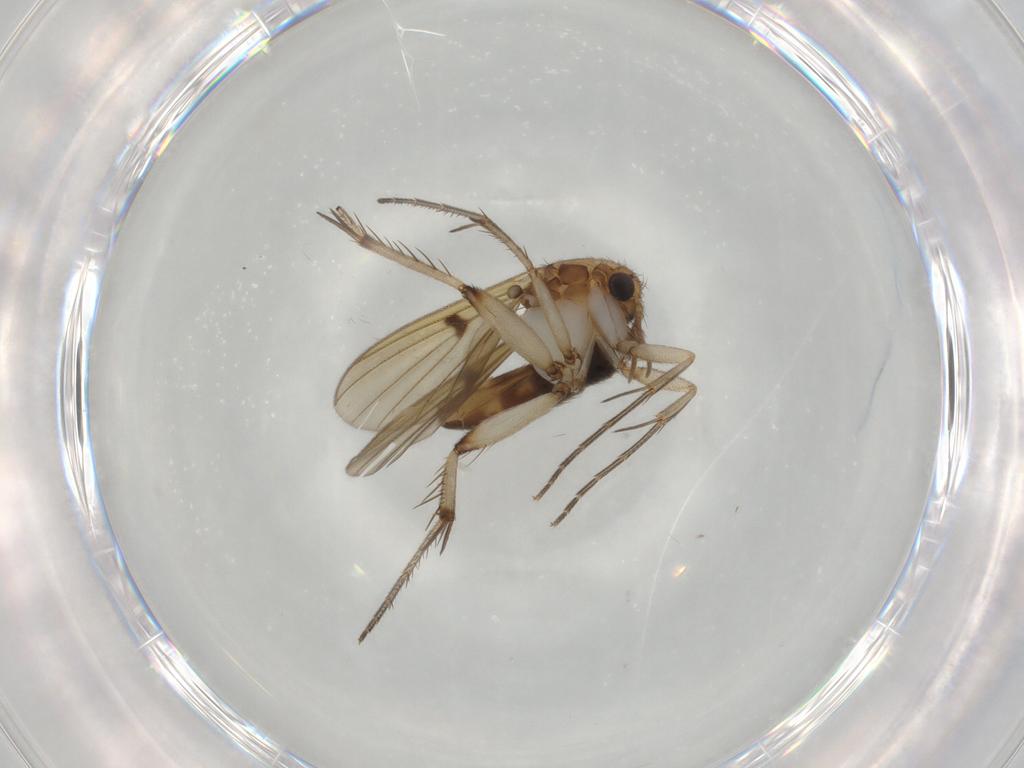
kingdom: Animalia
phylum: Arthropoda
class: Insecta
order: Diptera
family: Mycetophilidae
